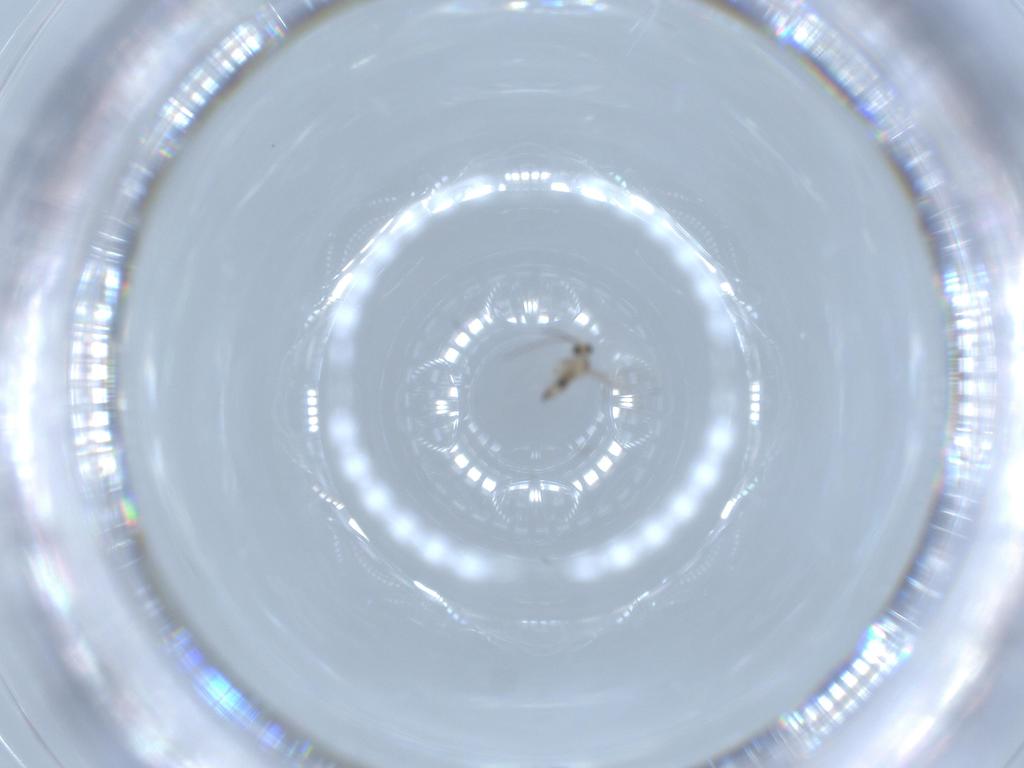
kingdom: Animalia
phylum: Arthropoda
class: Insecta
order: Diptera
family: Cecidomyiidae
